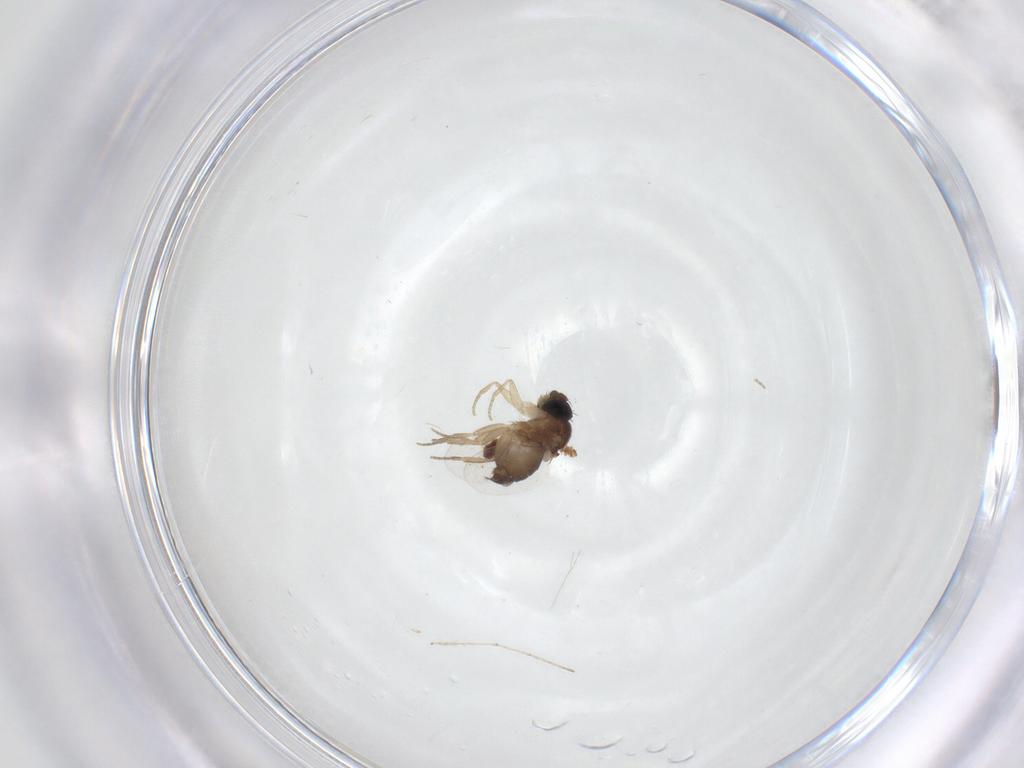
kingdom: Animalia
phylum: Arthropoda
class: Insecta
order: Diptera
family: Phoridae
